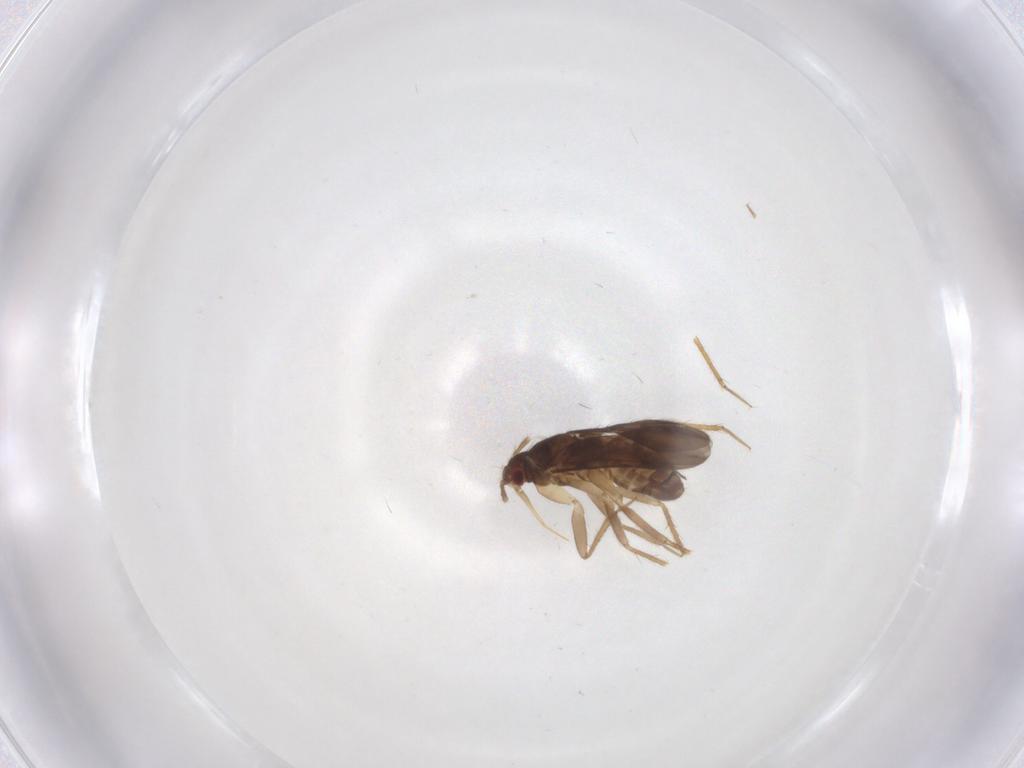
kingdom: Animalia
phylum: Arthropoda
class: Insecta
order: Hemiptera
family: Ceratocombidae
